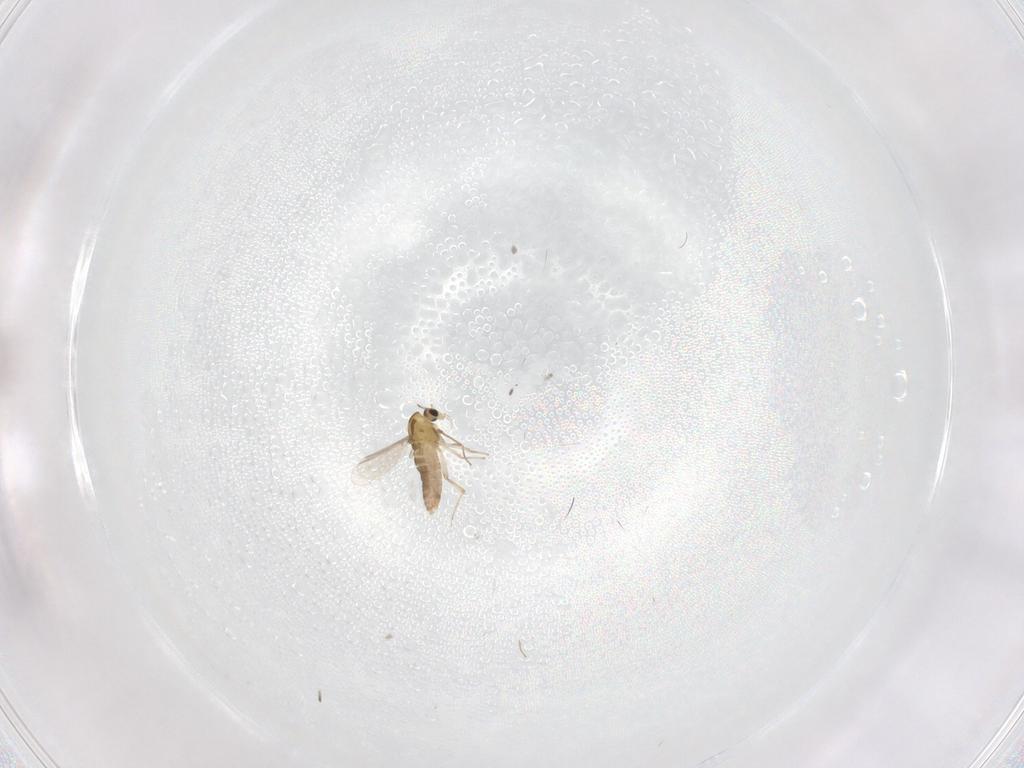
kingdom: Animalia
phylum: Arthropoda
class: Insecta
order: Diptera
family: Chironomidae
